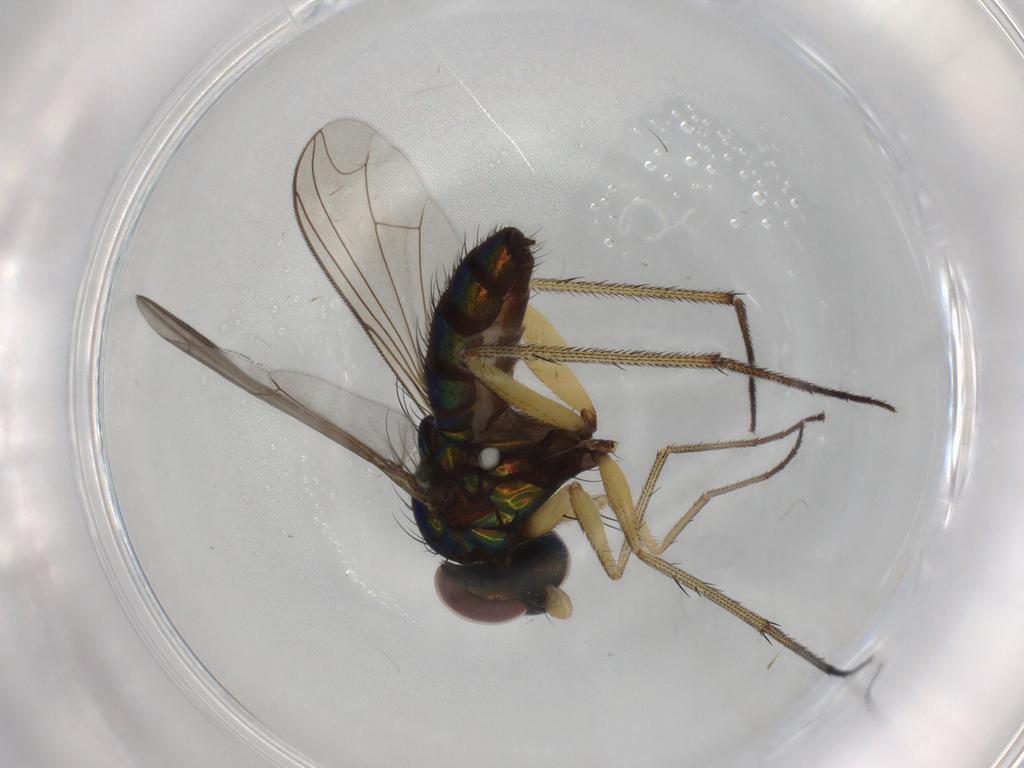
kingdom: Animalia
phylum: Arthropoda
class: Insecta
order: Diptera
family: Dolichopodidae
